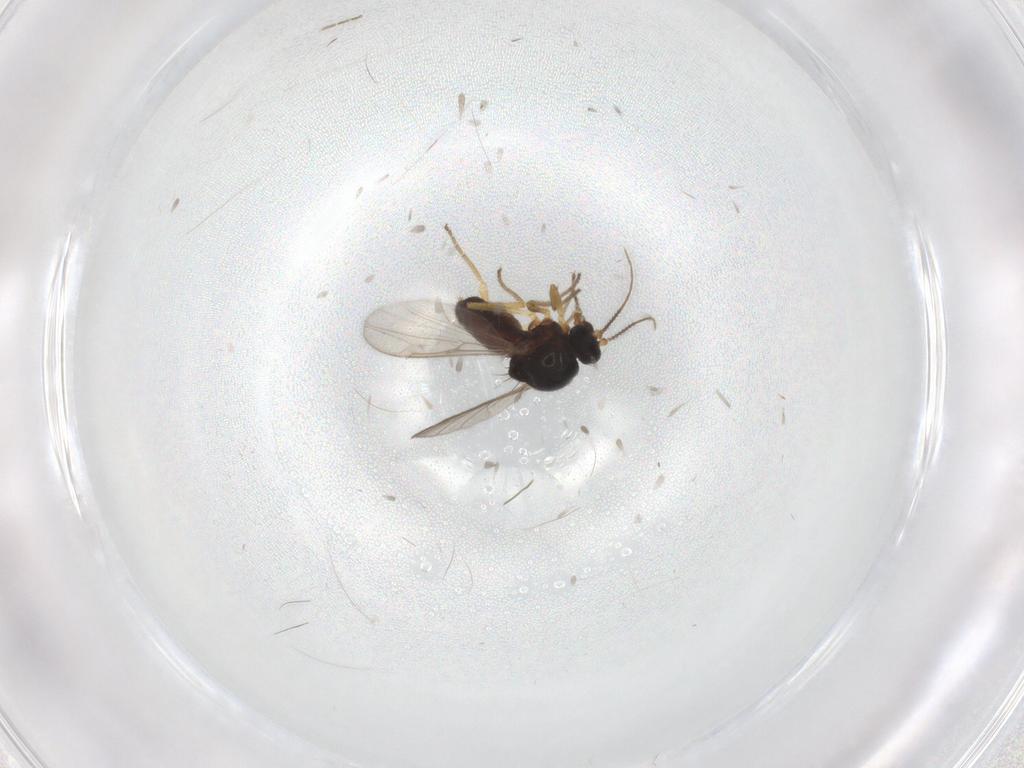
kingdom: Animalia
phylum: Arthropoda
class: Insecta
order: Diptera
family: Ceratopogonidae
